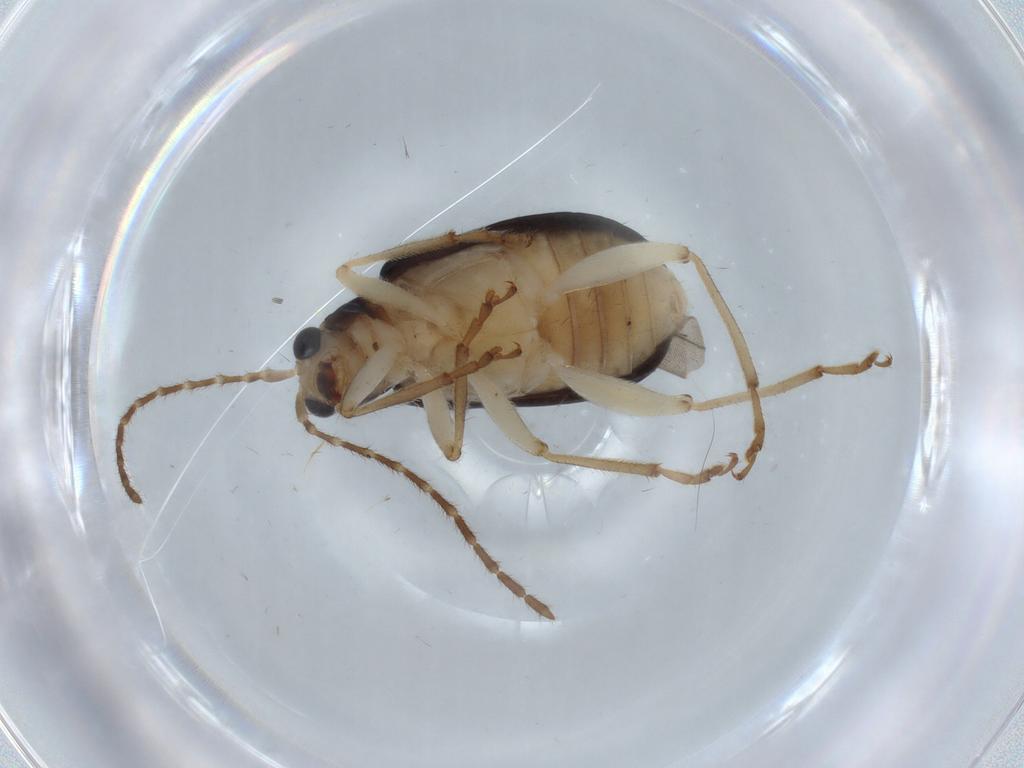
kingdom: Animalia
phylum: Arthropoda
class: Insecta
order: Coleoptera
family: Chrysomelidae
